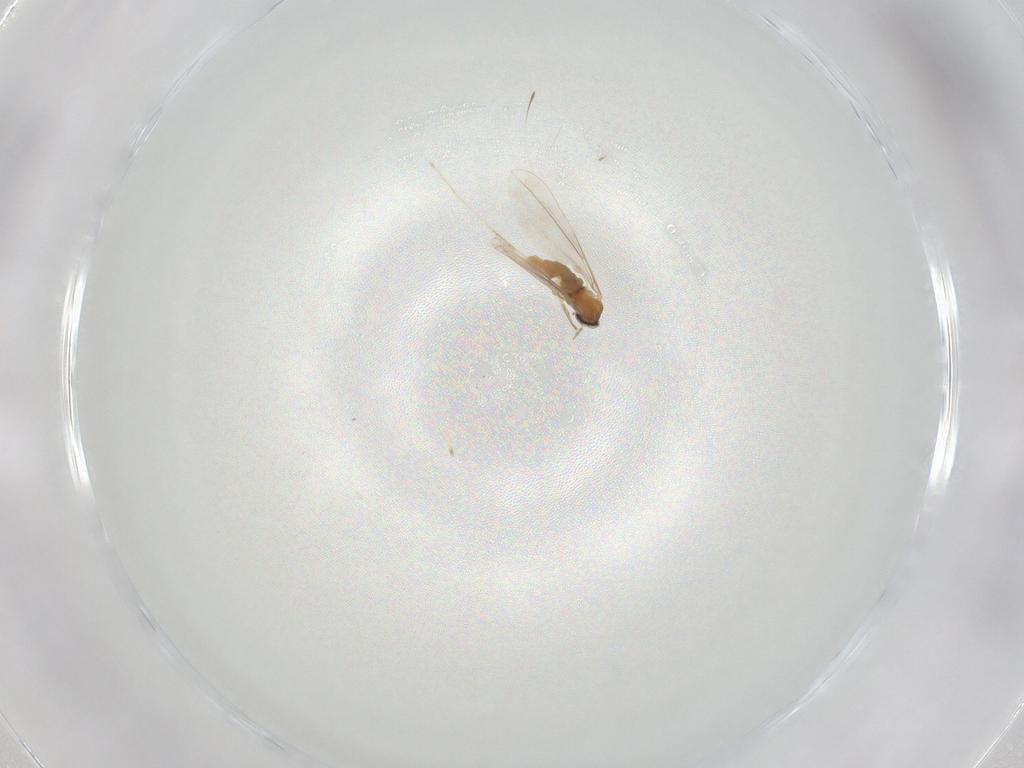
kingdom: Animalia
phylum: Arthropoda
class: Insecta
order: Diptera
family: Cecidomyiidae
